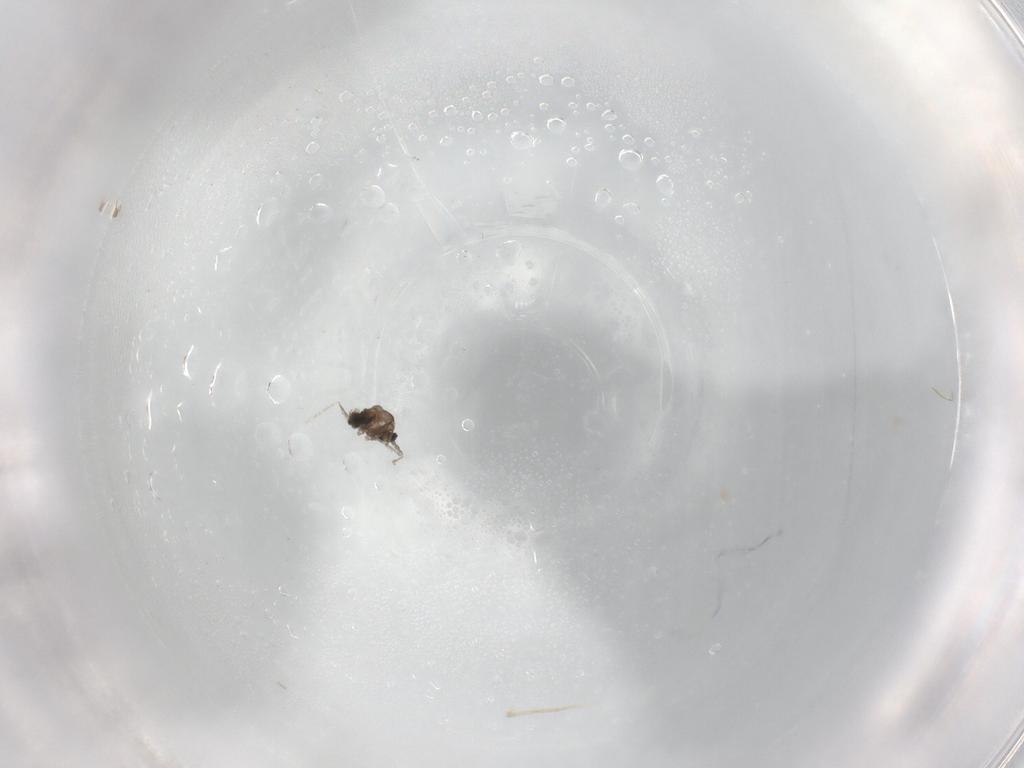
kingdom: Animalia
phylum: Arthropoda
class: Insecta
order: Diptera
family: Cecidomyiidae
